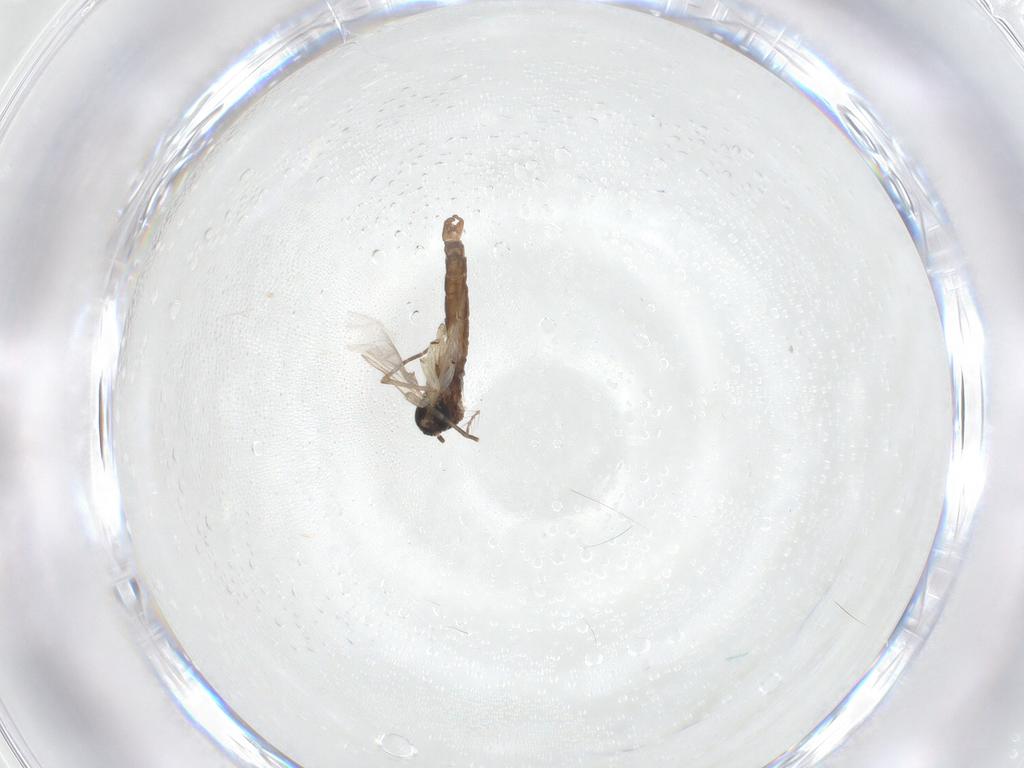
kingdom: Animalia
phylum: Arthropoda
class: Insecta
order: Diptera
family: Sciaridae
